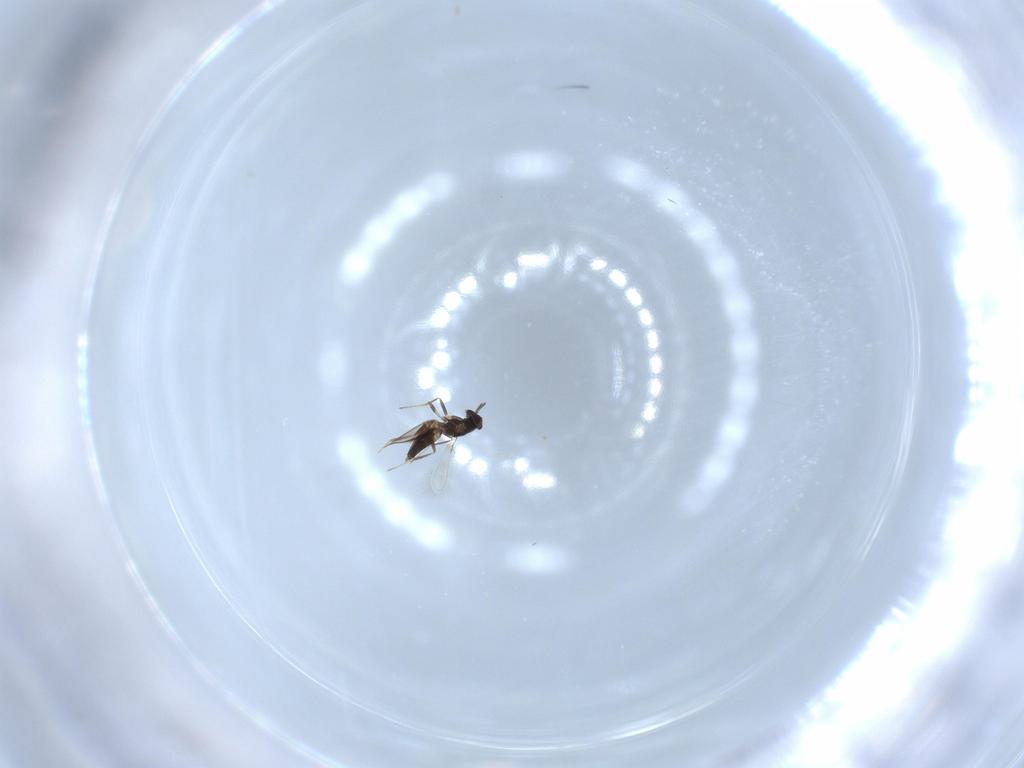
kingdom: Animalia
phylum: Arthropoda
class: Insecta
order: Hymenoptera
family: Mymaridae
